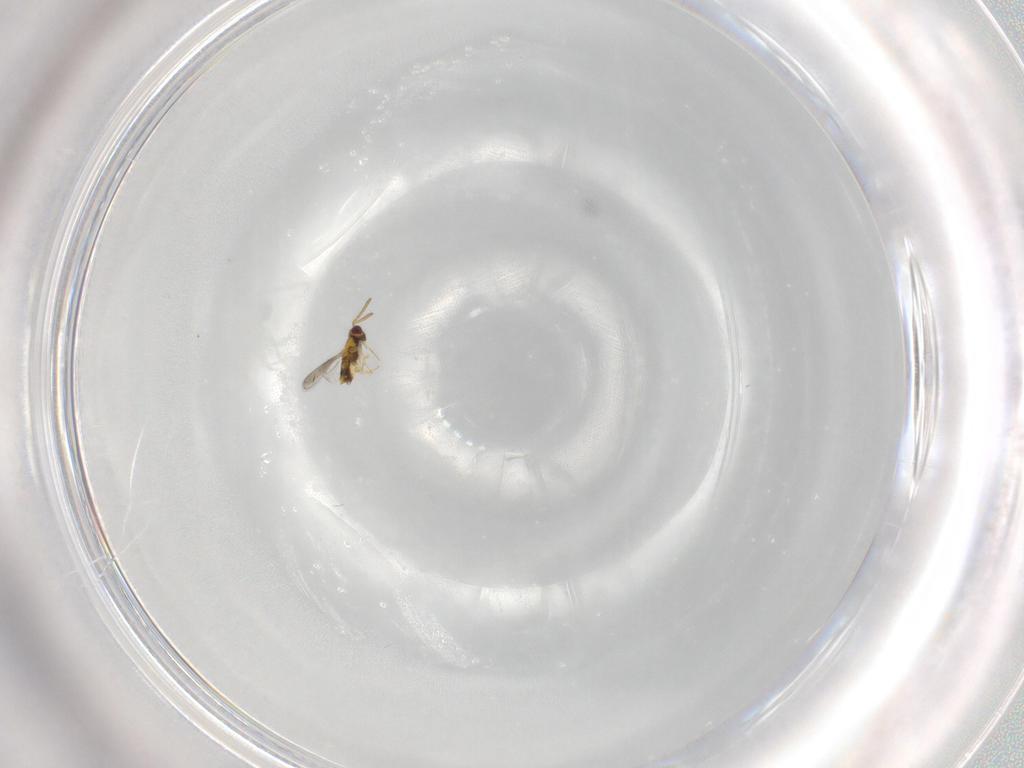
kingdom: Animalia
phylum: Arthropoda
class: Insecta
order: Hymenoptera
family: Aphelinidae
